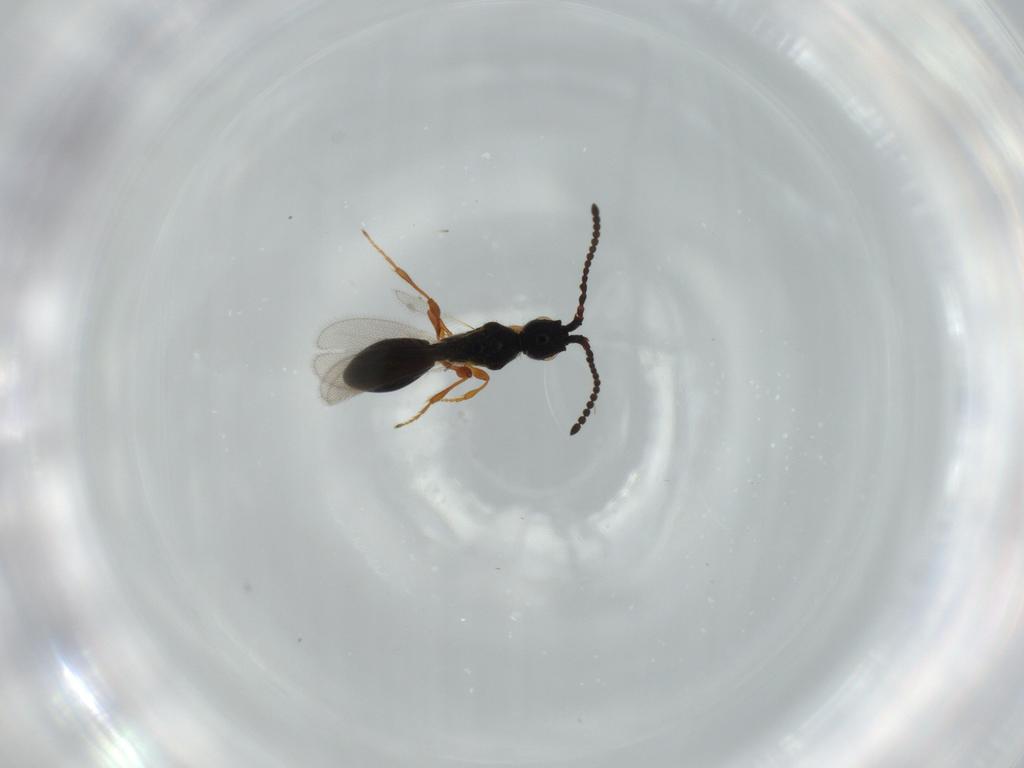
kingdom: Animalia
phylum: Arthropoda
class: Insecta
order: Hymenoptera
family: Diapriidae
